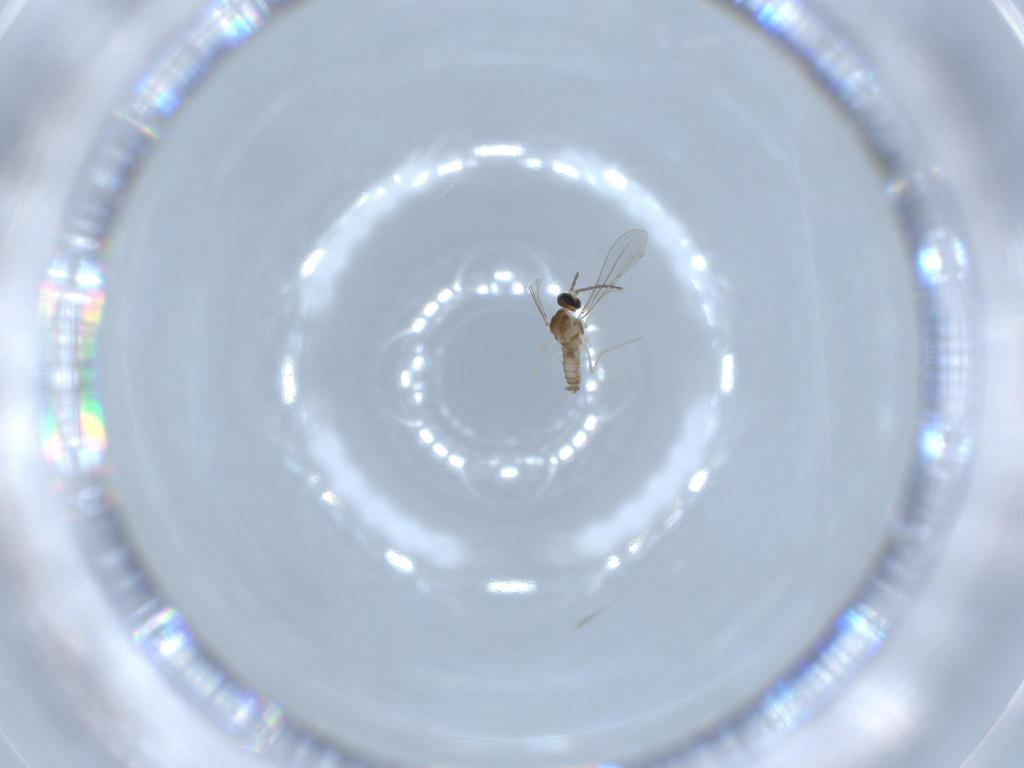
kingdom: Animalia
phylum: Arthropoda
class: Insecta
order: Diptera
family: Cecidomyiidae
